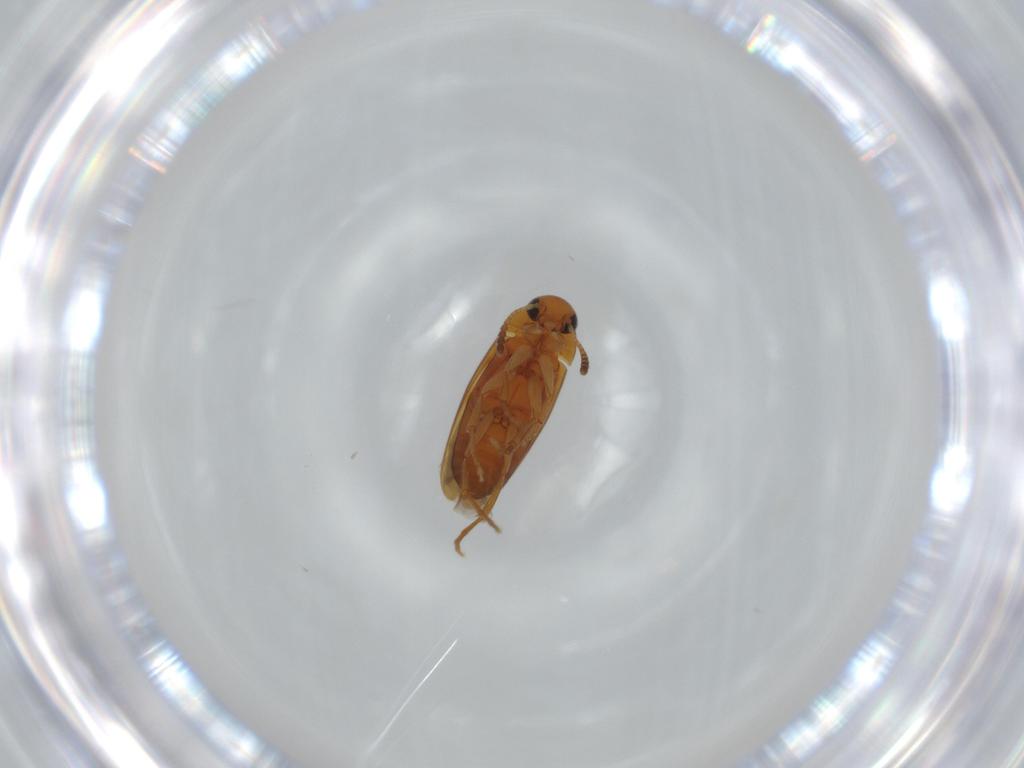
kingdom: Animalia
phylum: Arthropoda
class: Insecta
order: Coleoptera
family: Scraptiidae
